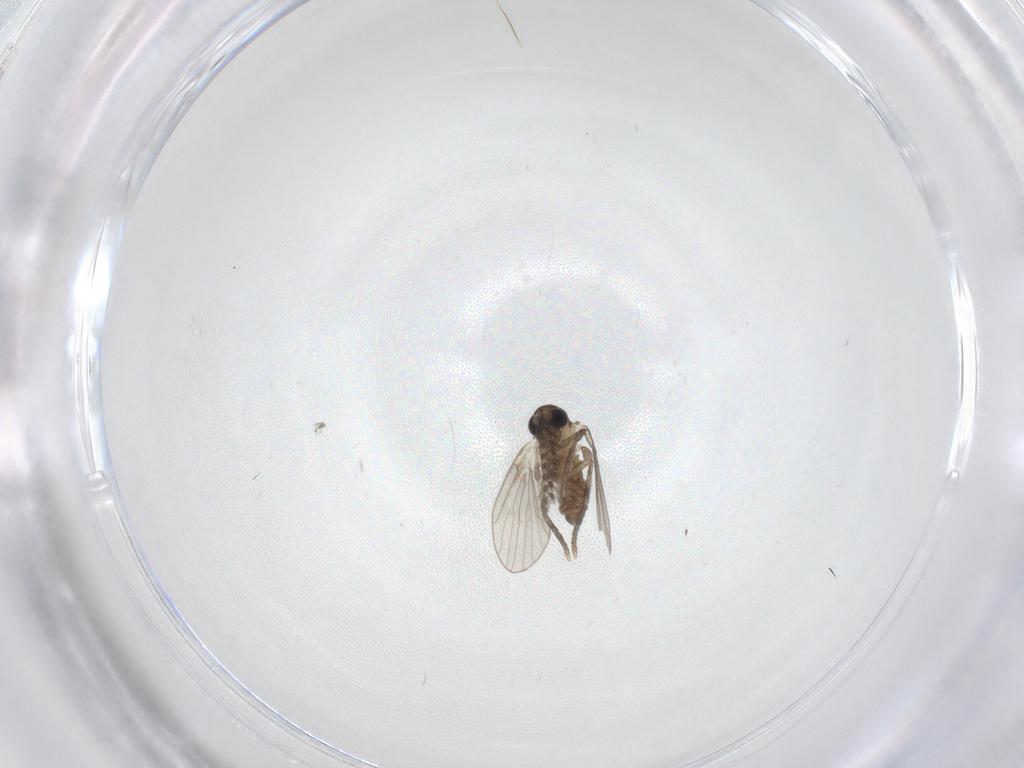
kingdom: Animalia
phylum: Arthropoda
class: Insecta
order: Diptera
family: Psychodidae
